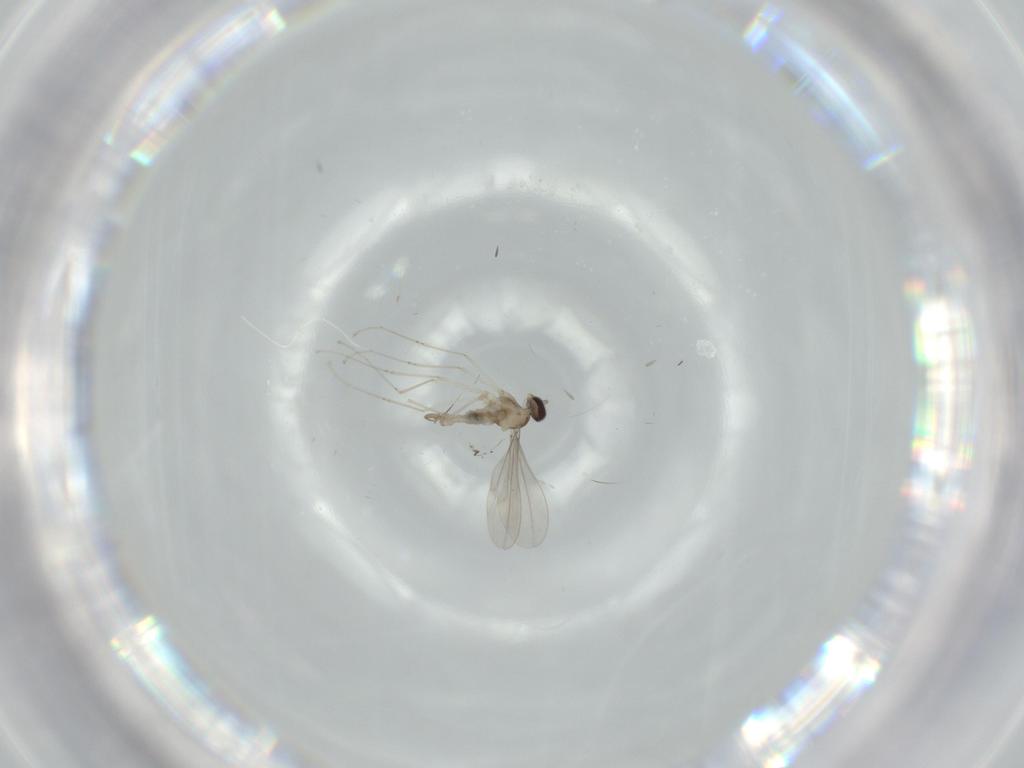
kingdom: Animalia
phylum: Arthropoda
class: Insecta
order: Diptera
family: Cecidomyiidae
